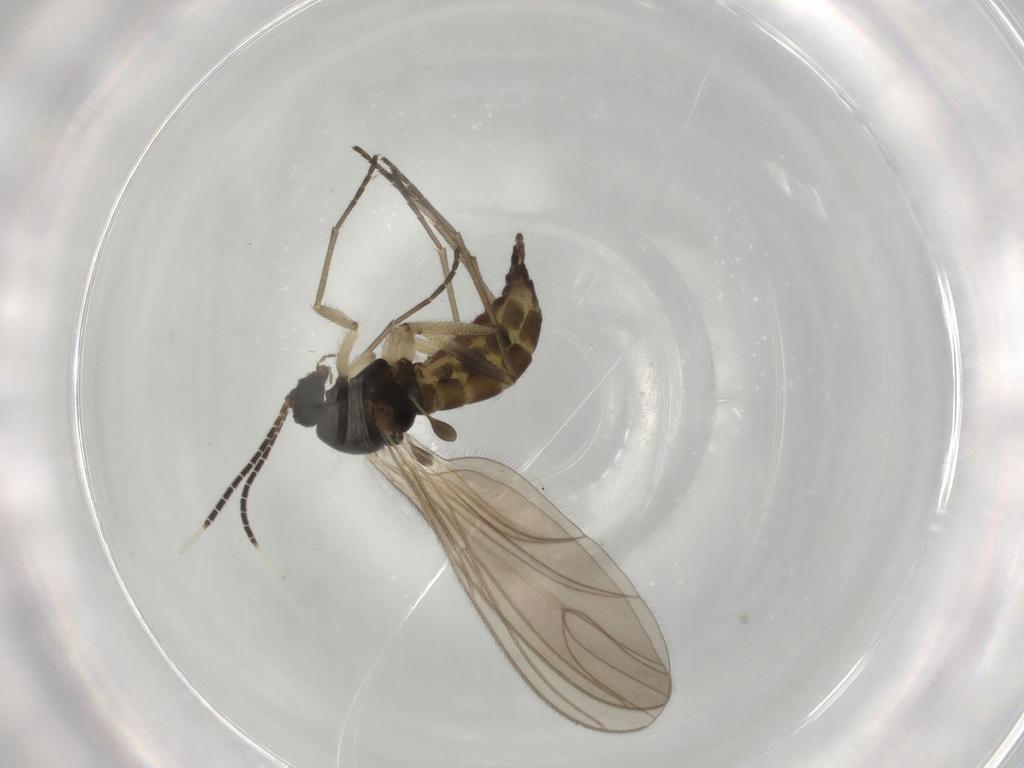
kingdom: Animalia
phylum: Arthropoda
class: Insecta
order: Diptera
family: Sciaridae
